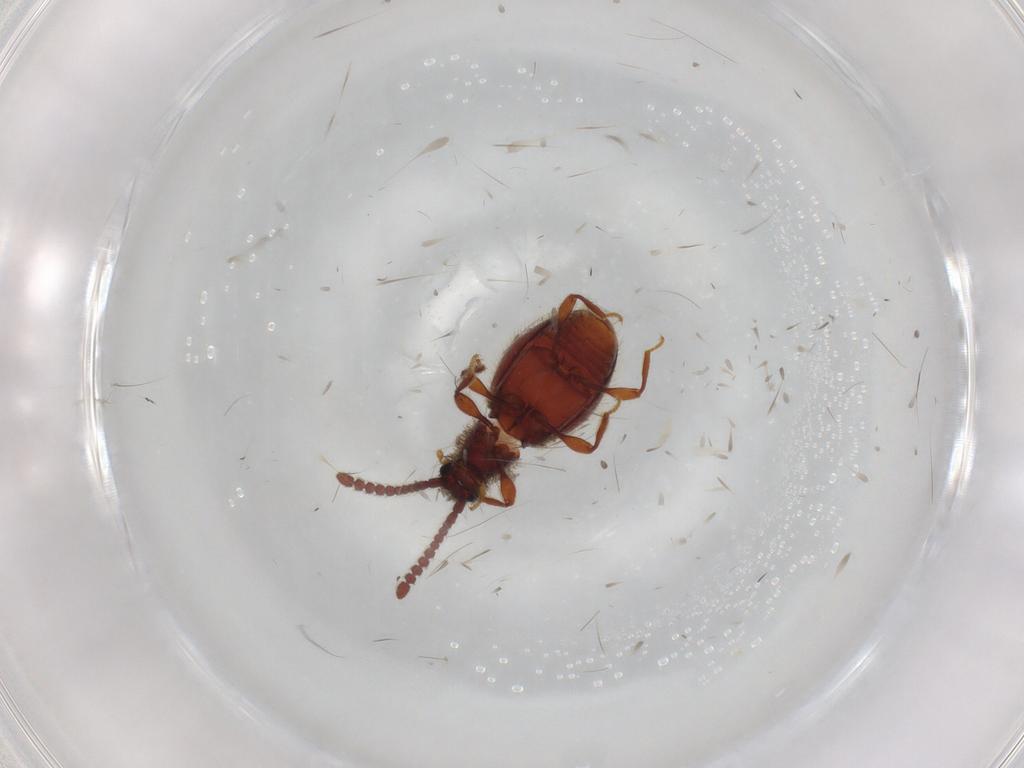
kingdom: Animalia
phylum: Arthropoda
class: Insecta
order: Coleoptera
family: Staphylinidae
